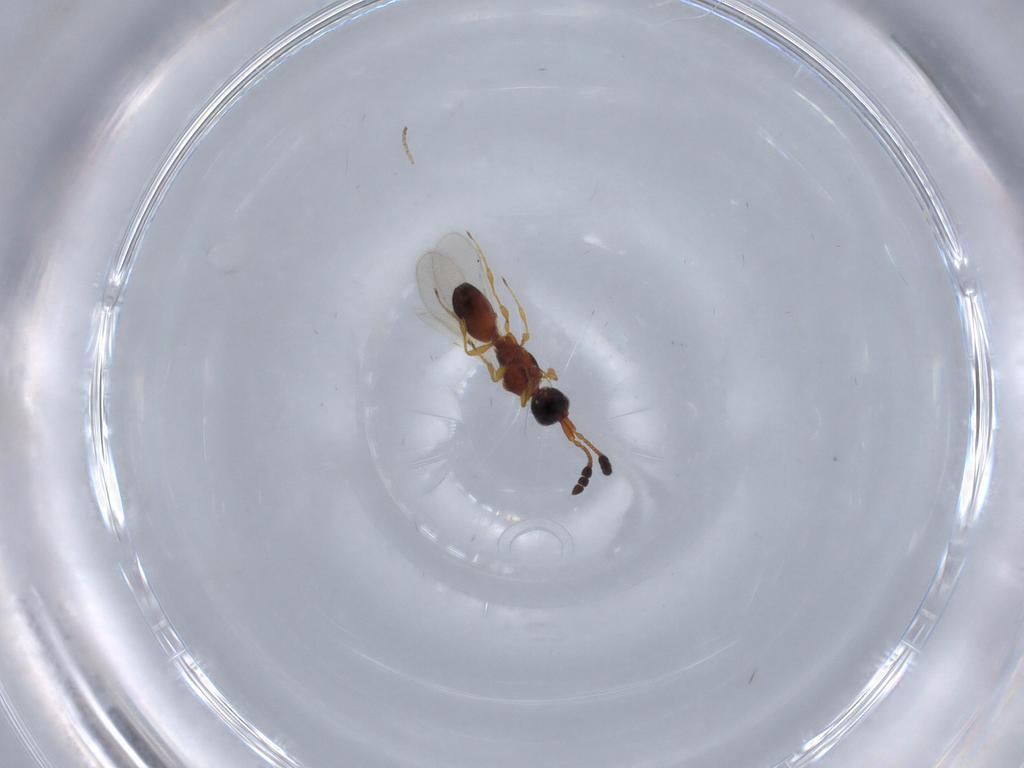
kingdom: Animalia
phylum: Arthropoda
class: Insecta
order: Hymenoptera
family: Diapriidae
